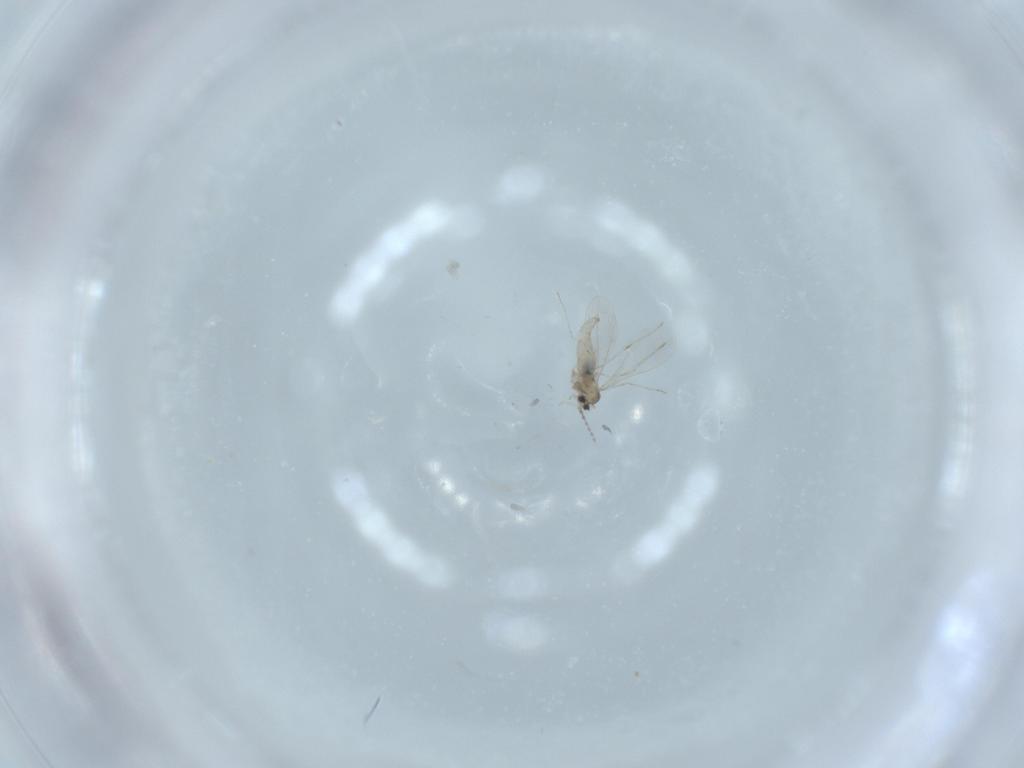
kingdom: Animalia
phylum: Arthropoda
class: Insecta
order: Diptera
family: Cecidomyiidae
